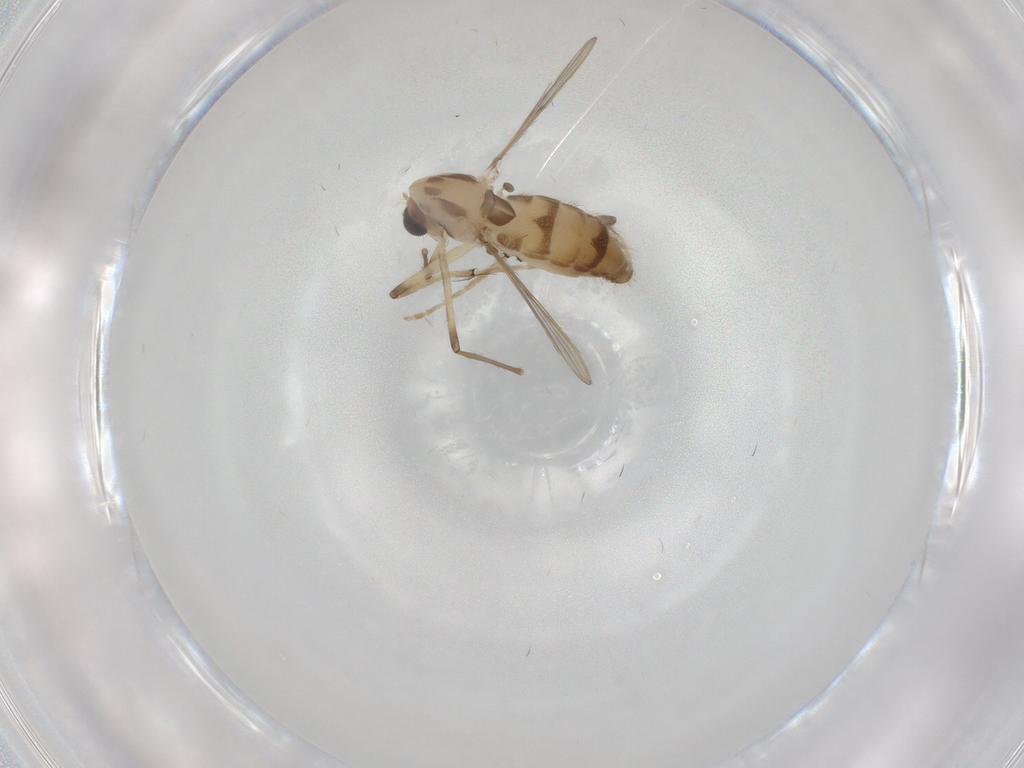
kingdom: Animalia
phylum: Arthropoda
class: Insecta
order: Diptera
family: Chironomidae
